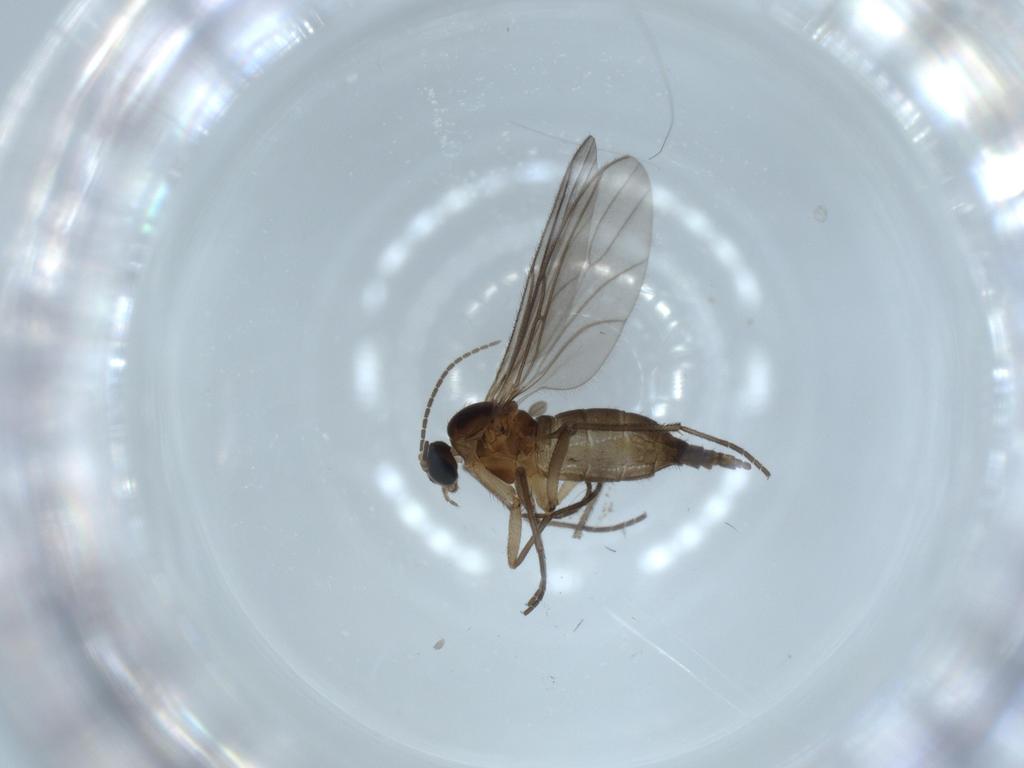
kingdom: Animalia
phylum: Arthropoda
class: Insecta
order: Diptera
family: Sciaridae
